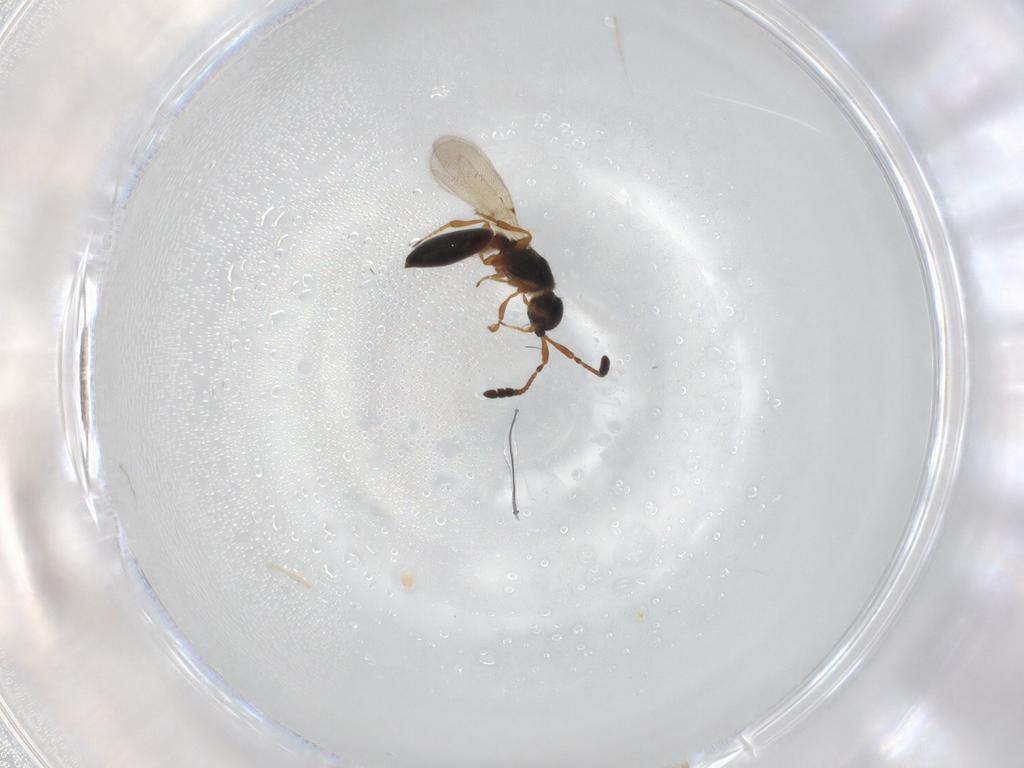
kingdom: Animalia
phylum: Arthropoda
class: Insecta
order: Hymenoptera
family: Diapriidae
